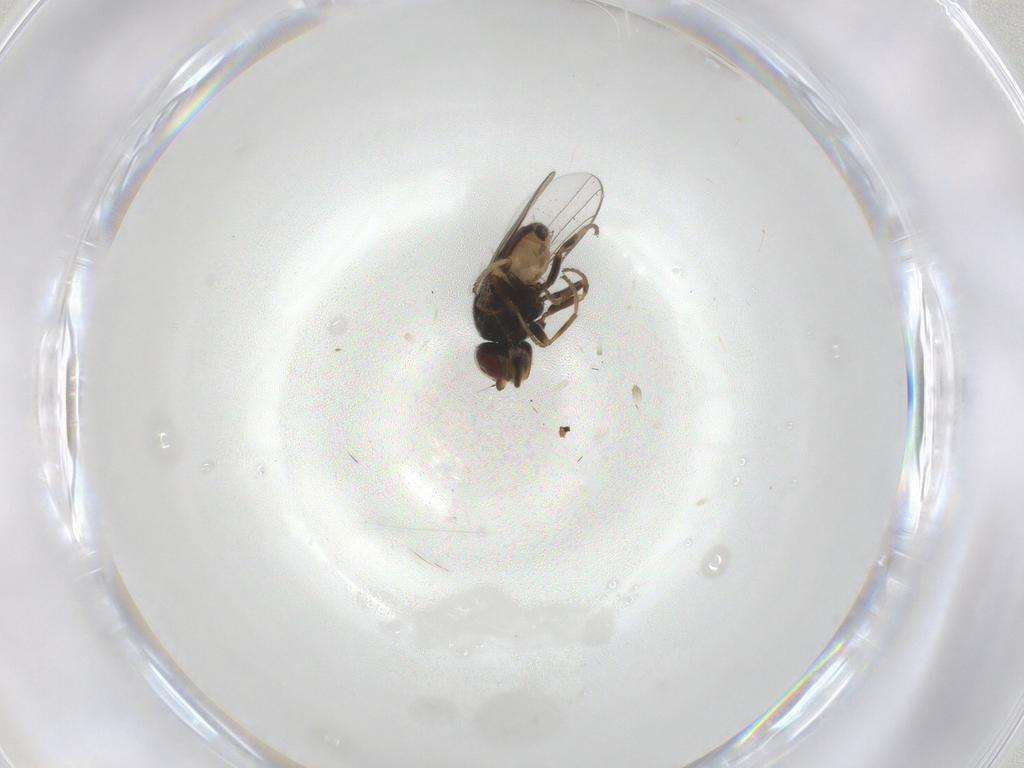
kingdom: Animalia
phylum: Arthropoda
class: Insecta
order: Diptera
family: Chloropidae
